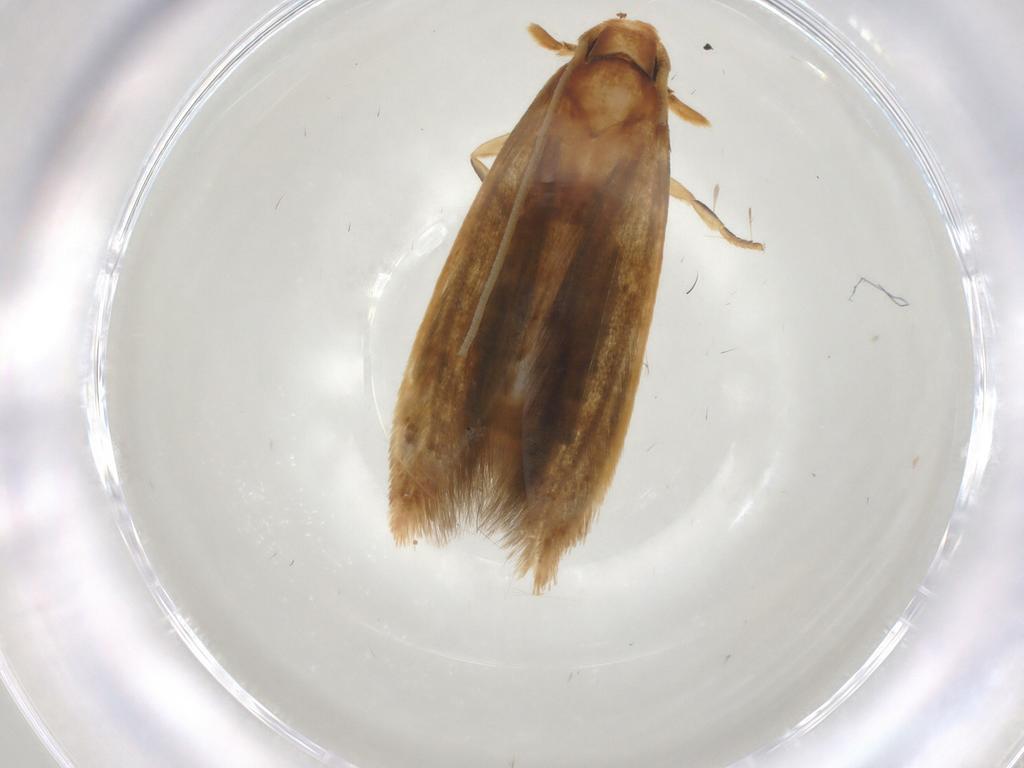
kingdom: Animalia
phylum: Arthropoda
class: Insecta
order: Lepidoptera
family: Tineidae
